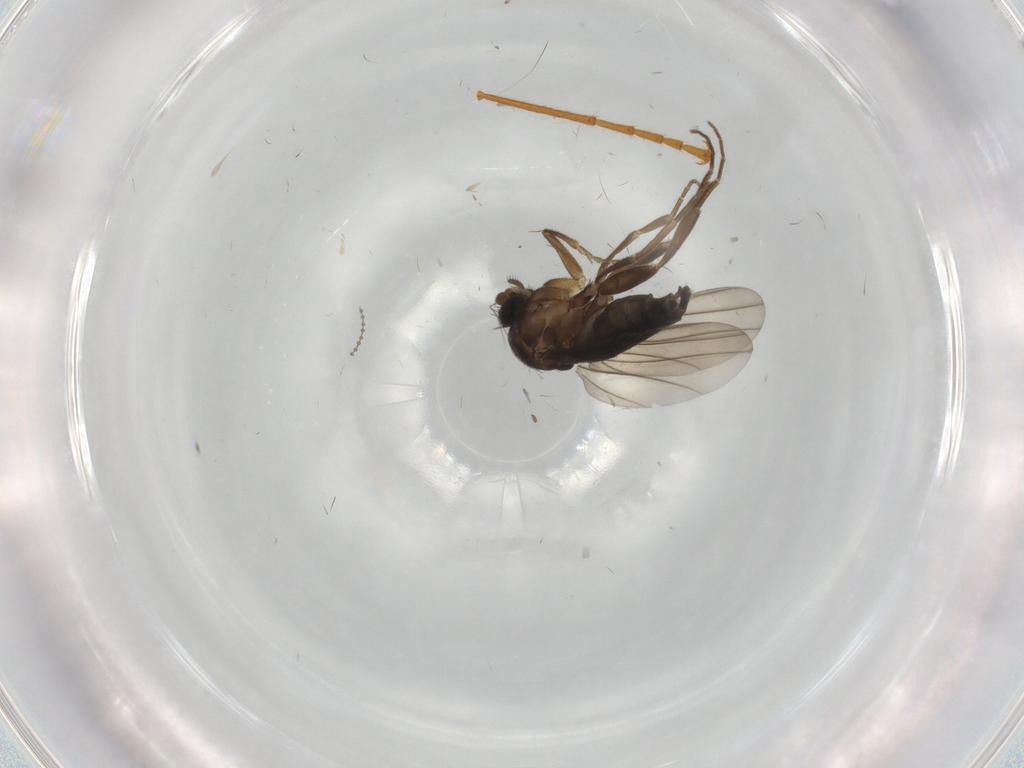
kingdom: Animalia
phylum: Arthropoda
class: Insecta
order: Diptera
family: Phoridae
